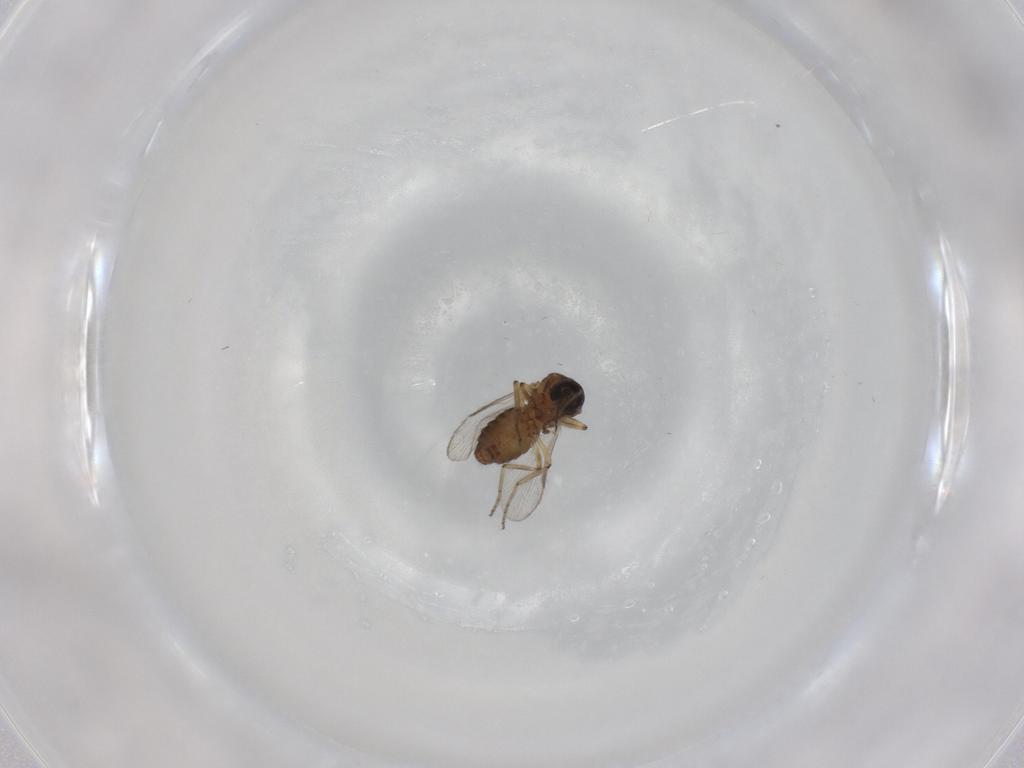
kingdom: Animalia
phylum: Arthropoda
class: Insecta
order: Diptera
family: Ceratopogonidae
